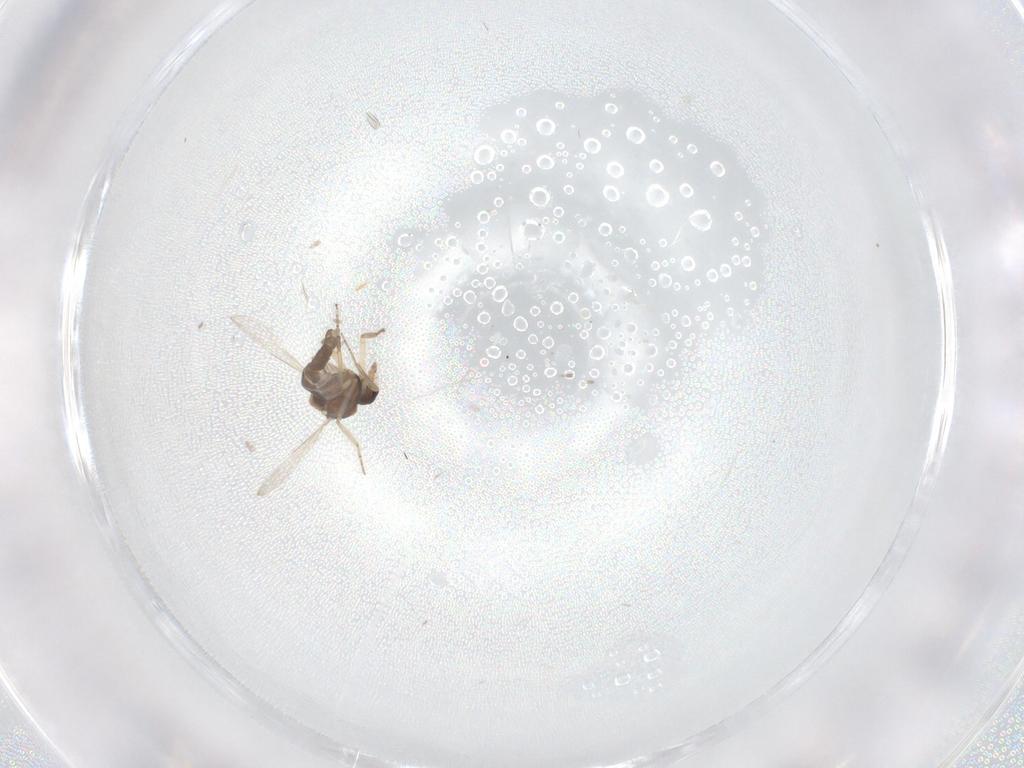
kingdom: Animalia
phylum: Arthropoda
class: Insecta
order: Diptera
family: Ceratopogonidae
